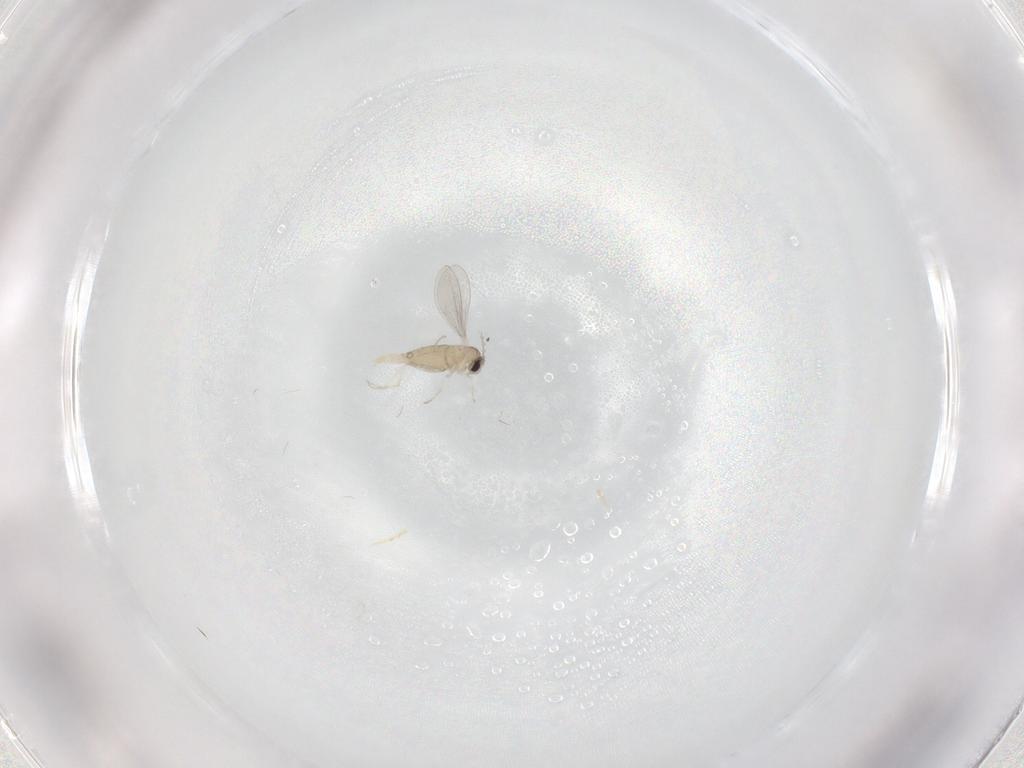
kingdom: Animalia
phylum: Arthropoda
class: Insecta
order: Diptera
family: Cecidomyiidae
